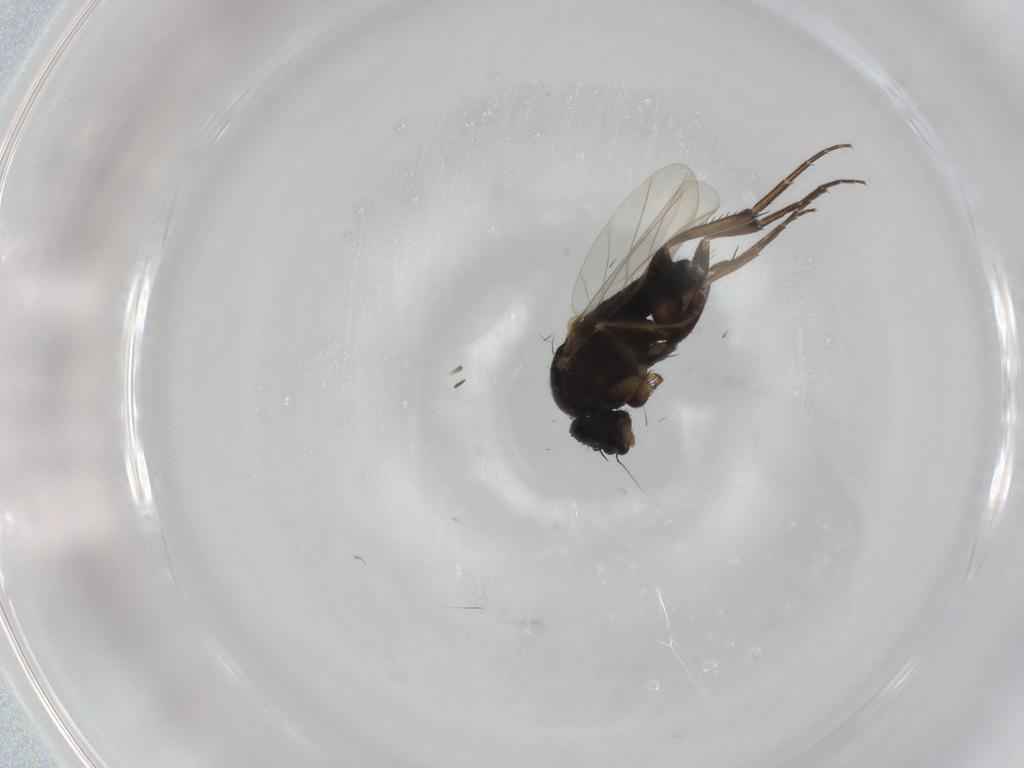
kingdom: Animalia
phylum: Arthropoda
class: Insecta
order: Diptera
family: Phoridae
